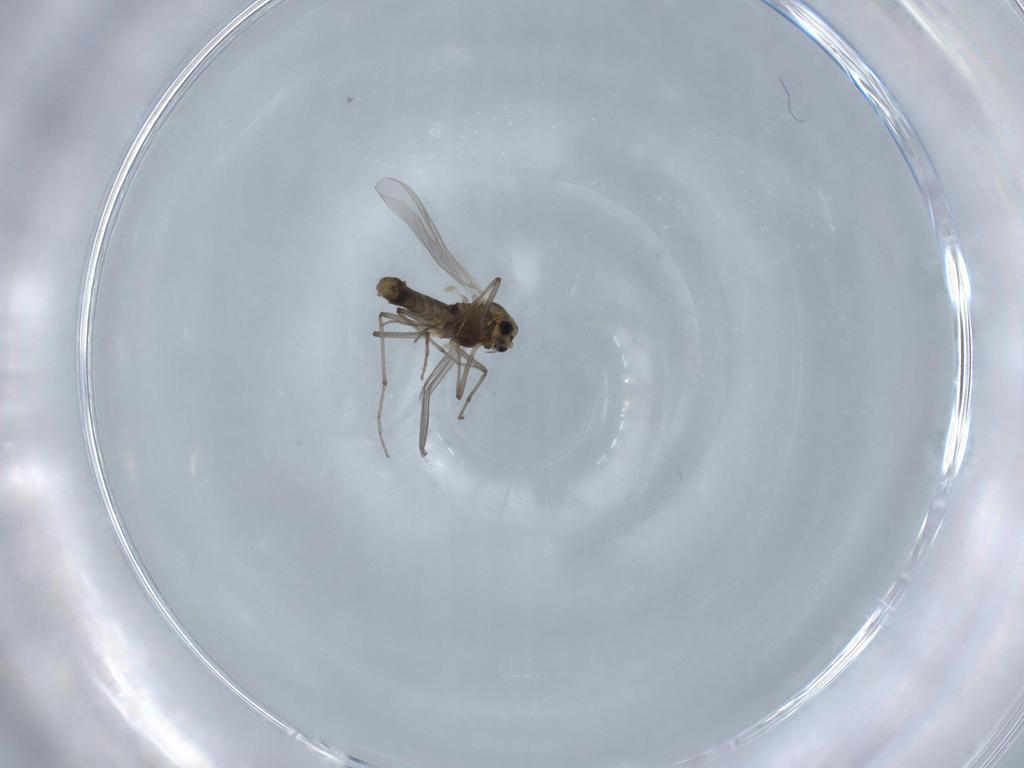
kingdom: Animalia
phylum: Arthropoda
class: Insecta
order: Diptera
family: Chironomidae
